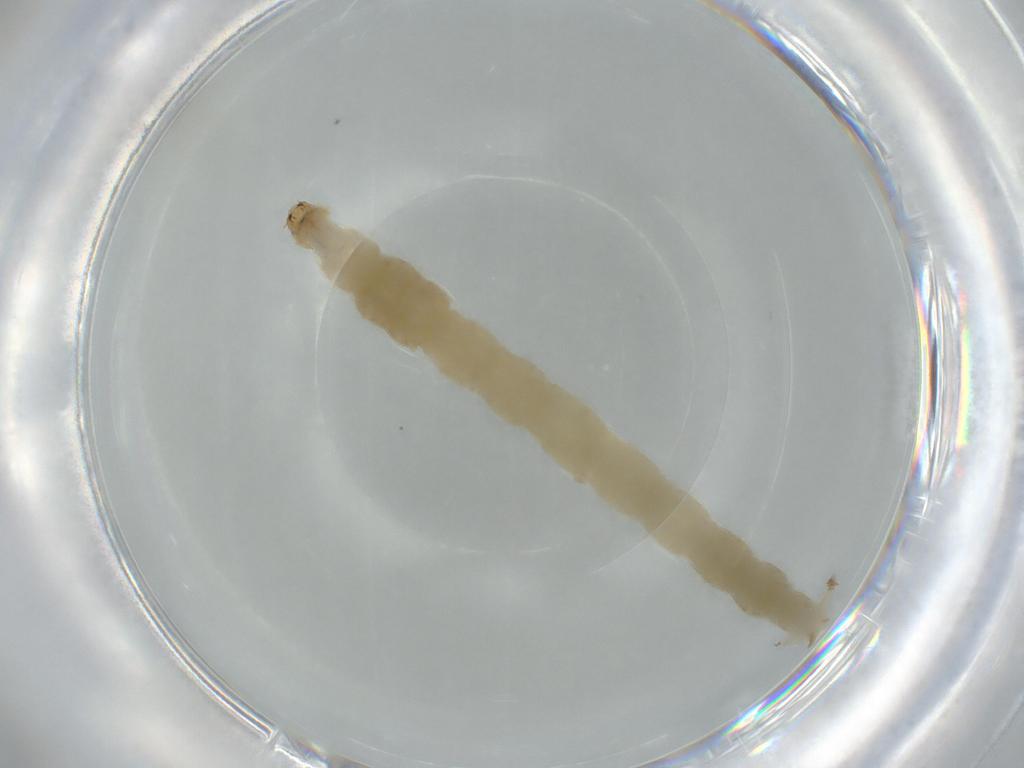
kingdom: Animalia
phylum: Arthropoda
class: Insecta
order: Diptera
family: Chironomidae
